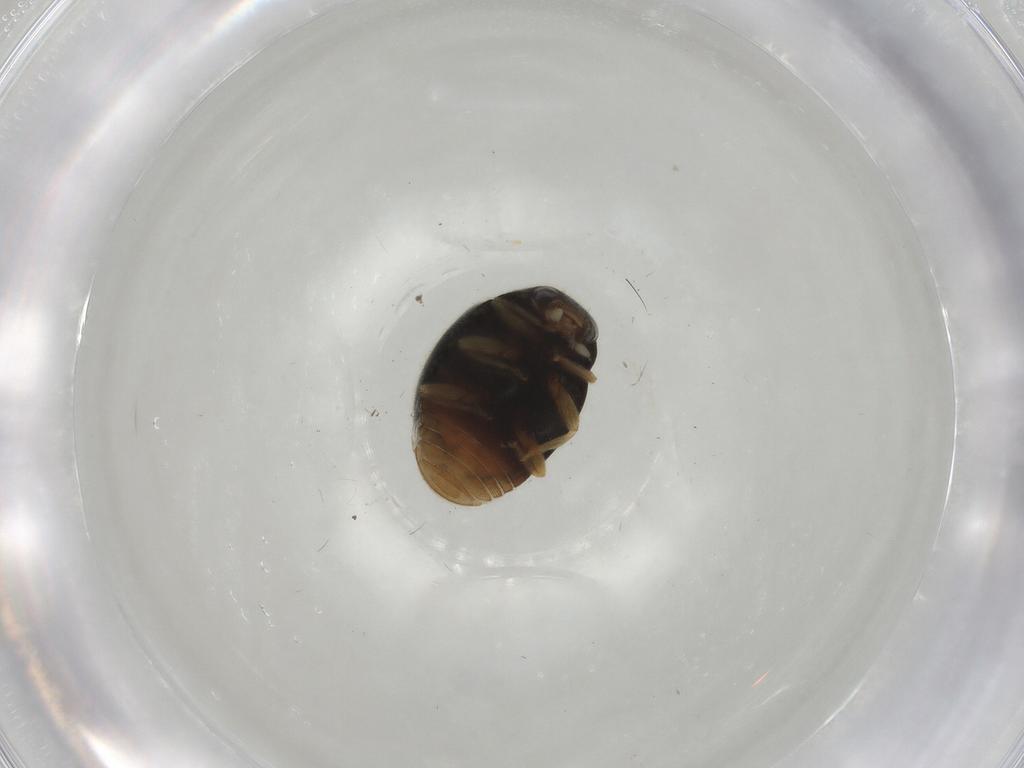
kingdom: Animalia
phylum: Arthropoda
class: Insecta
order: Coleoptera
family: Coccinellidae
